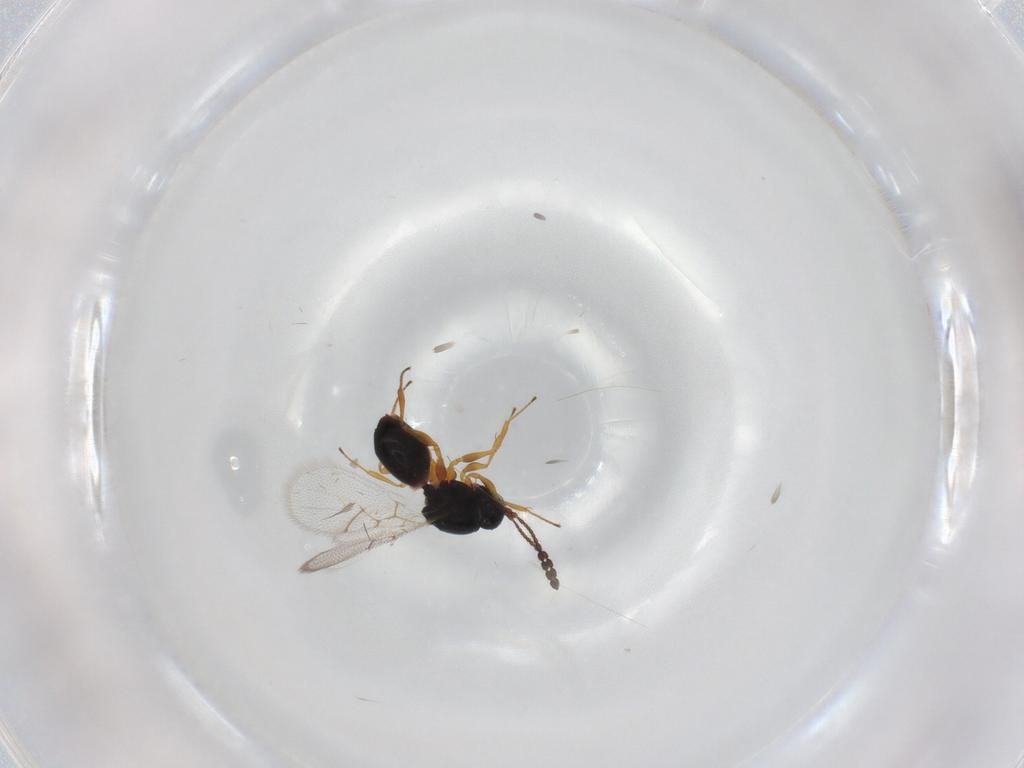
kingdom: Animalia
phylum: Arthropoda
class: Insecta
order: Hymenoptera
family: Figitidae
